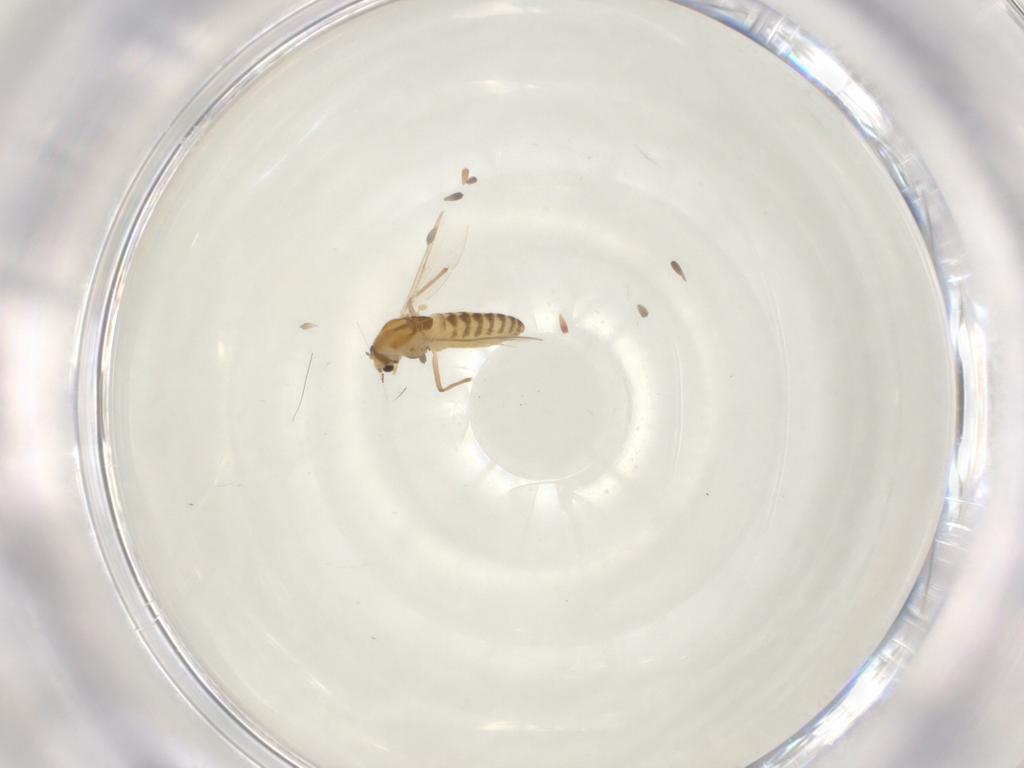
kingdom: Animalia
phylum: Arthropoda
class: Insecta
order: Diptera
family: Chironomidae
